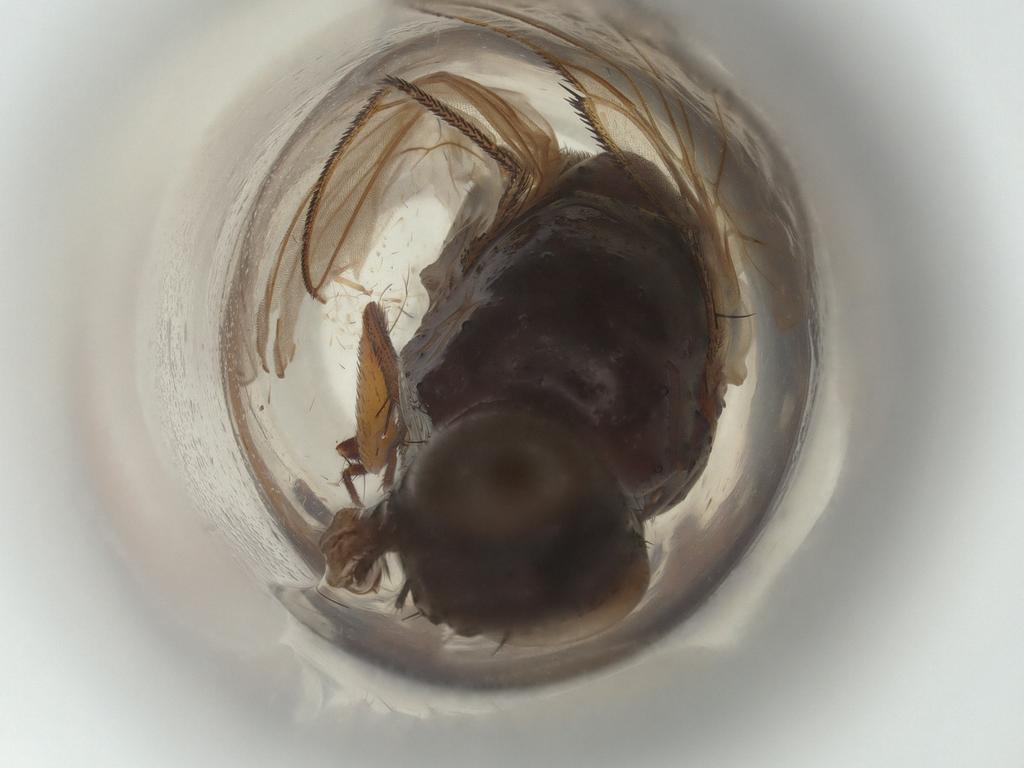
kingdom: Animalia
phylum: Arthropoda
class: Insecta
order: Diptera
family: Muscidae
